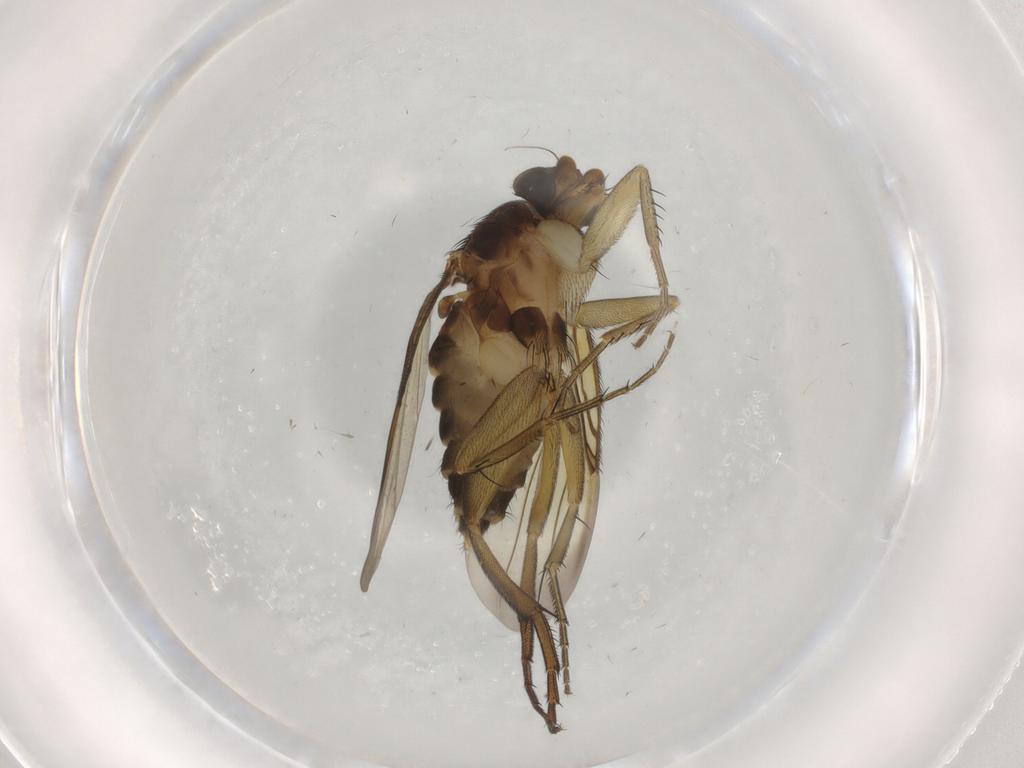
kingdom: Animalia
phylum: Arthropoda
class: Insecta
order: Diptera
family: Phoridae
